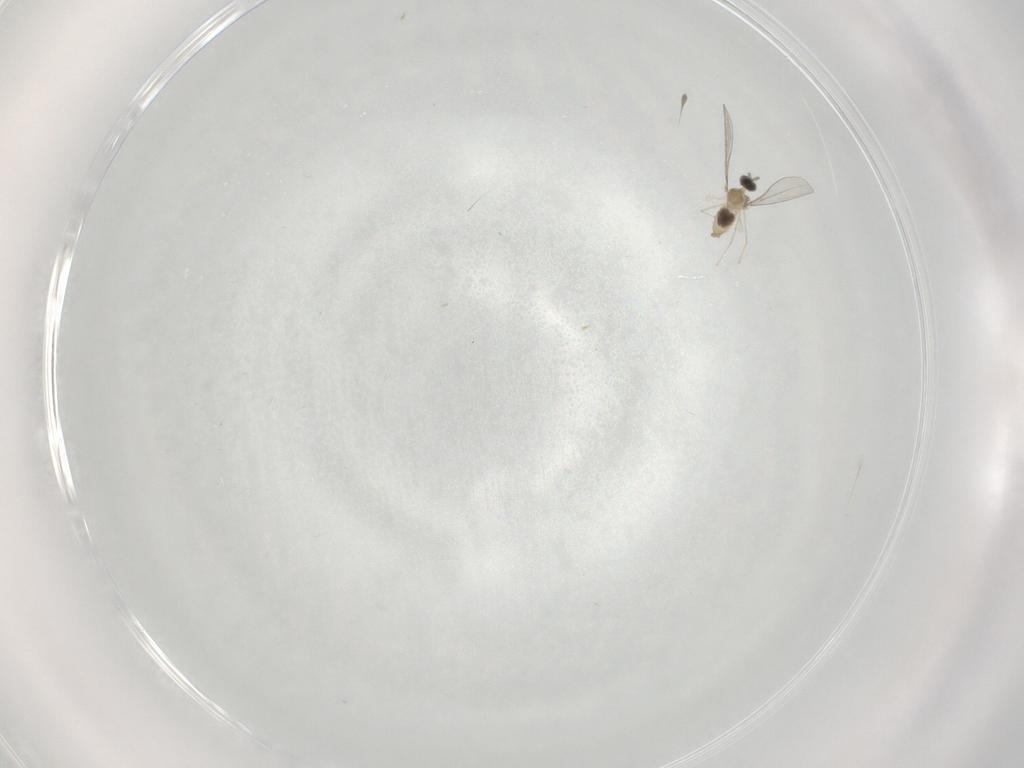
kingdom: Animalia
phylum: Arthropoda
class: Insecta
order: Diptera
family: Cecidomyiidae
